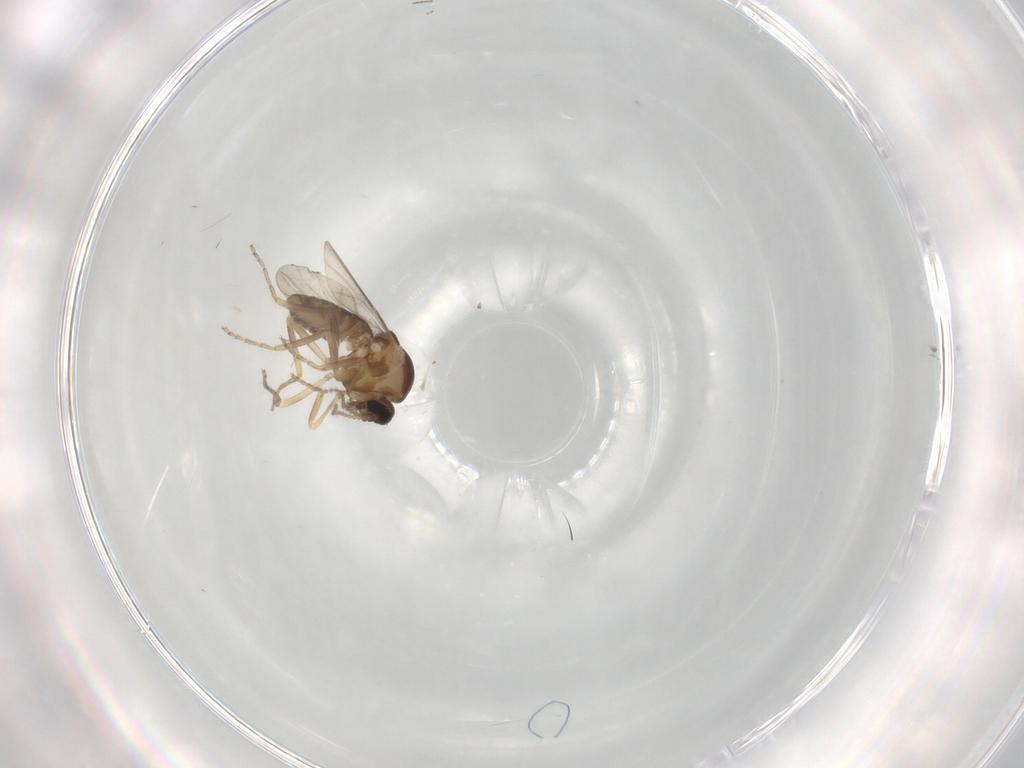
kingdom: Animalia
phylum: Arthropoda
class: Insecta
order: Diptera
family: Ceratopogonidae
